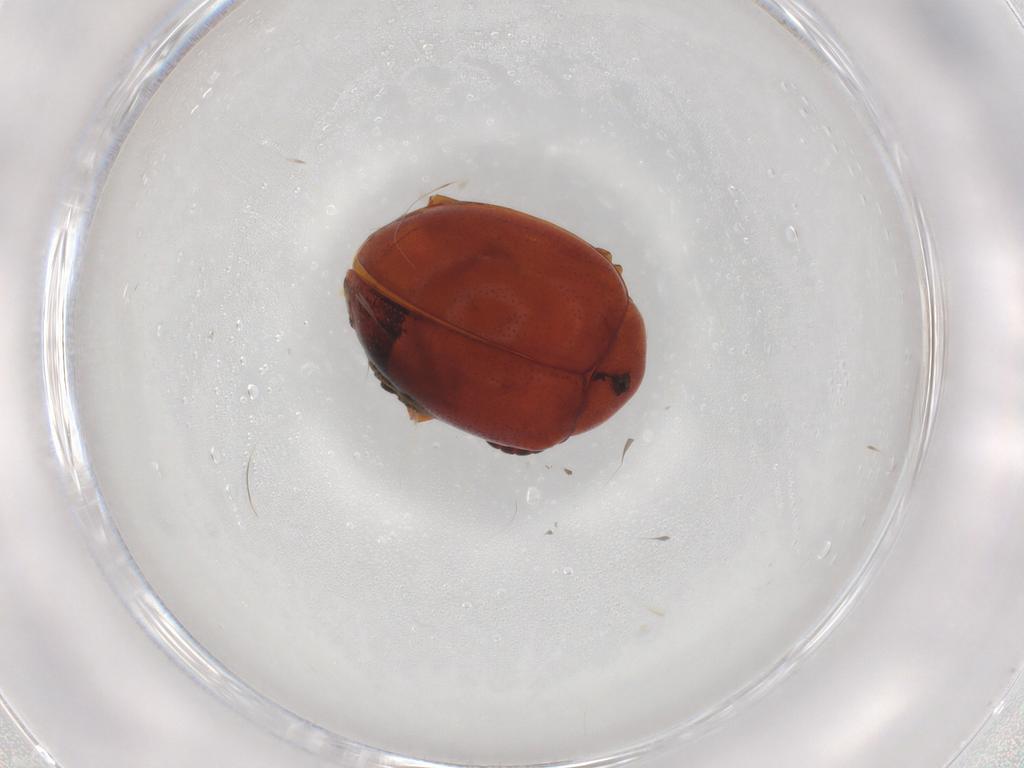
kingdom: Animalia
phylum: Arthropoda
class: Insecta
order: Coleoptera
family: Chrysomelidae
